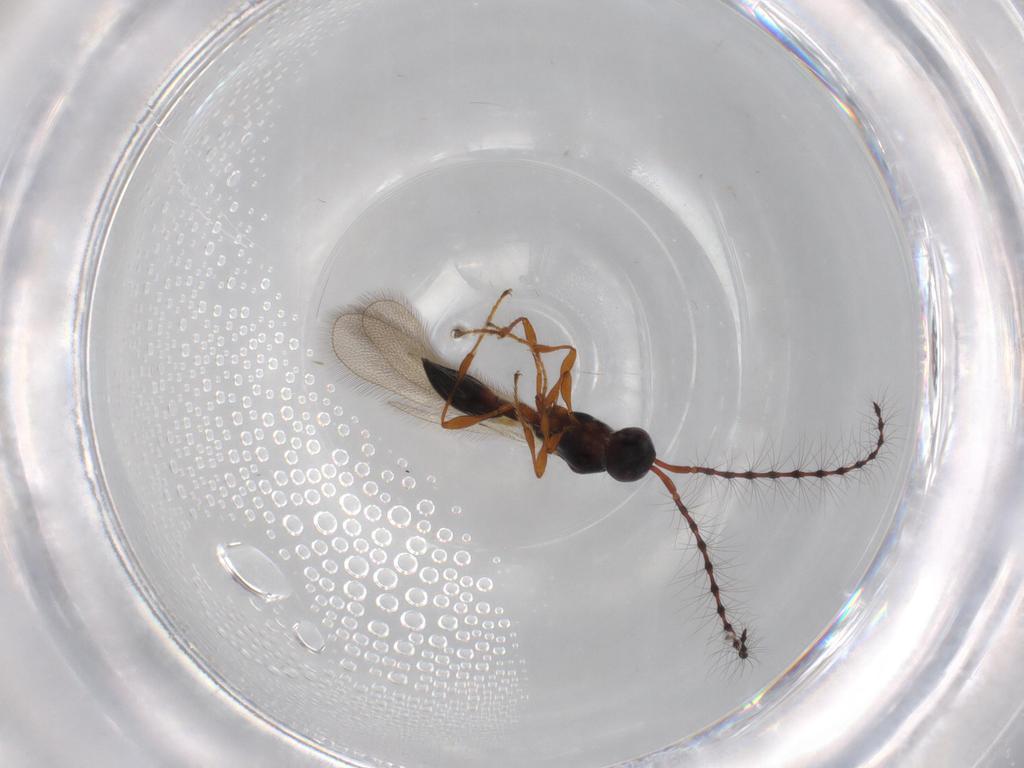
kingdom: Animalia
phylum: Arthropoda
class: Insecta
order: Hymenoptera
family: Diapriidae
